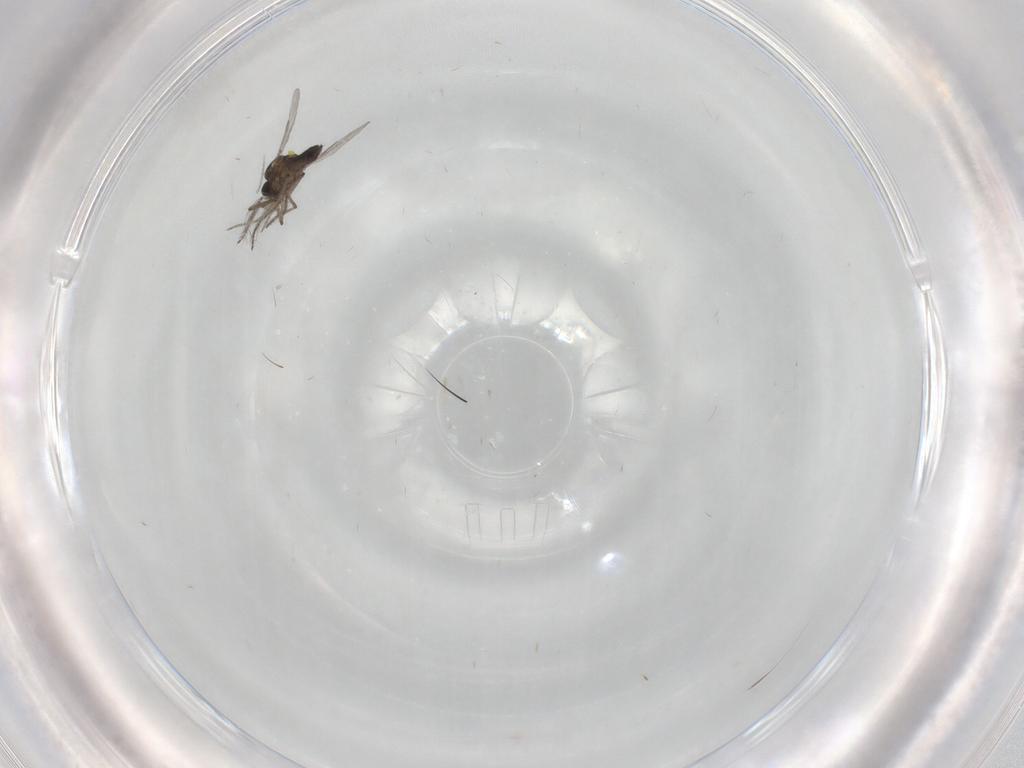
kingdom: Animalia
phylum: Arthropoda
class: Insecta
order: Diptera
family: Ceratopogonidae
